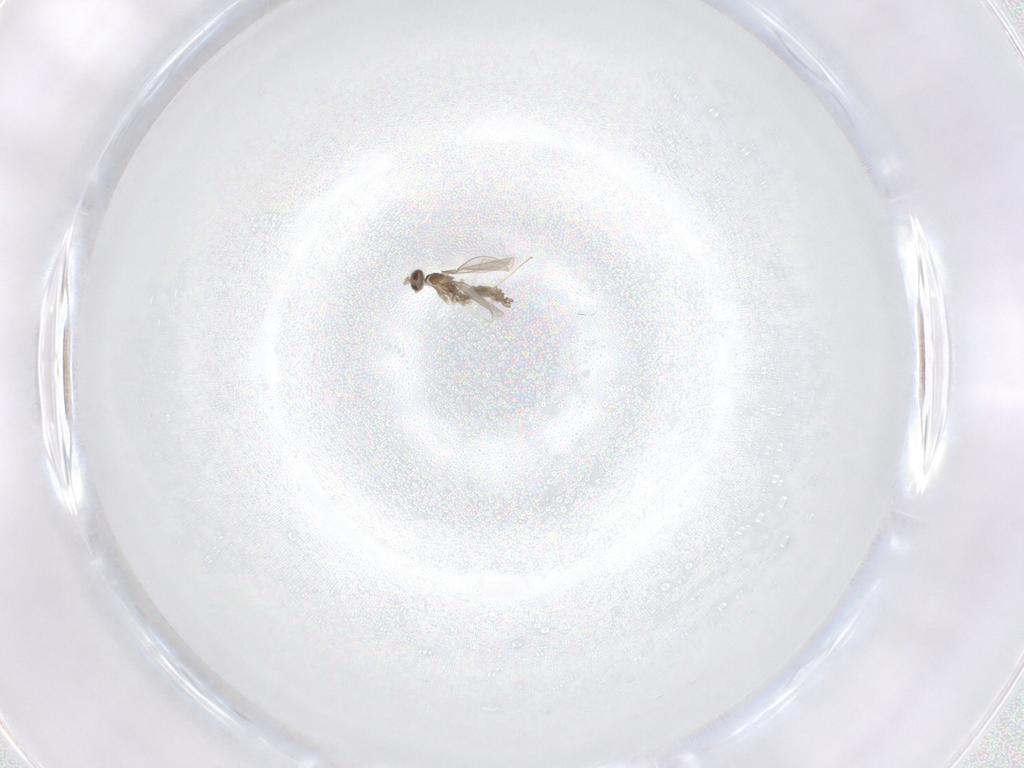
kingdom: Animalia
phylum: Arthropoda
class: Insecta
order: Diptera
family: Cecidomyiidae
